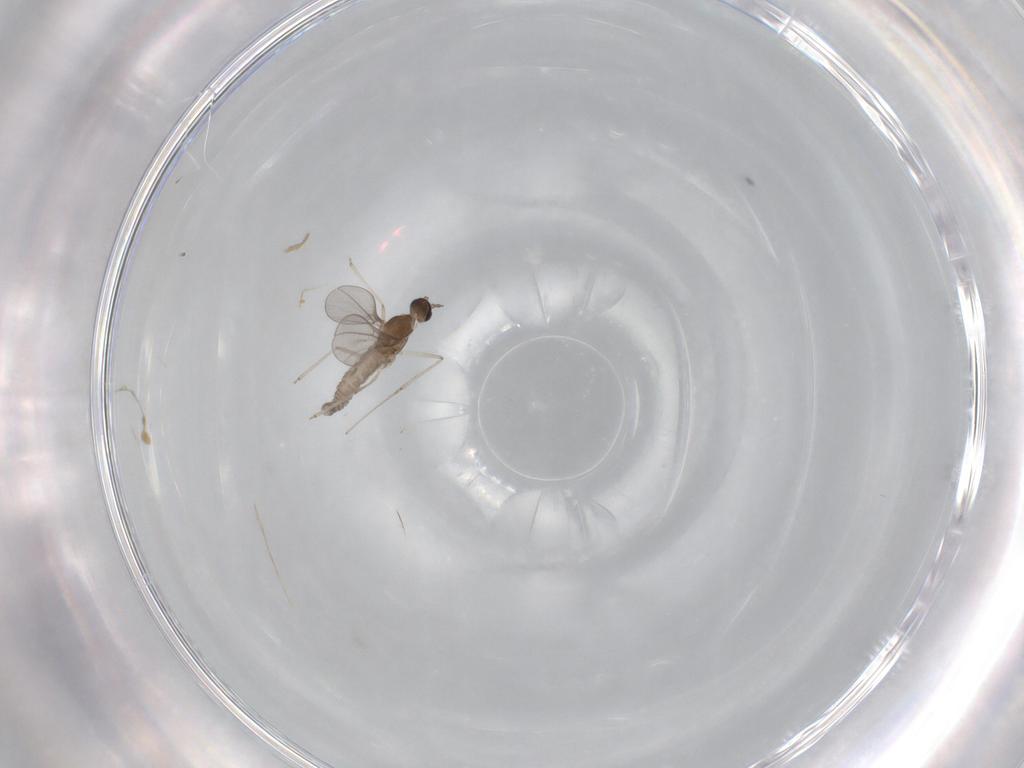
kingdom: Animalia
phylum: Arthropoda
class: Insecta
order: Diptera
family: Cecidomyiidae
